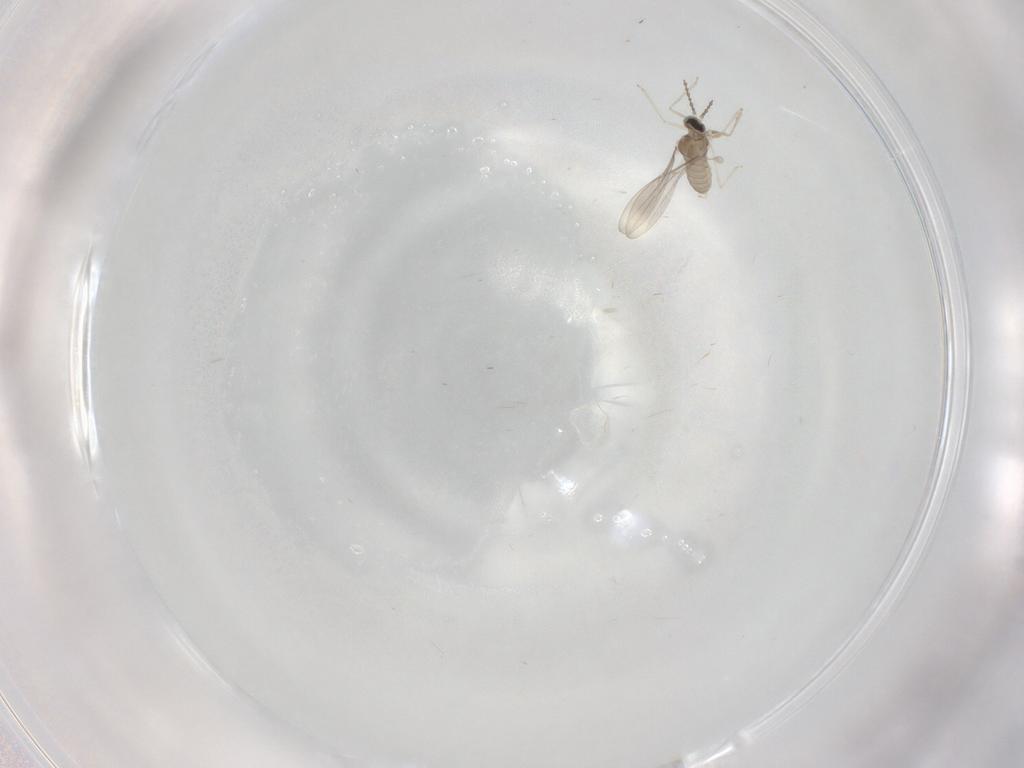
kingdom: Animalia
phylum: Arthropoda
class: Insecta
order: Diptera
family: Cecidomyiidae
